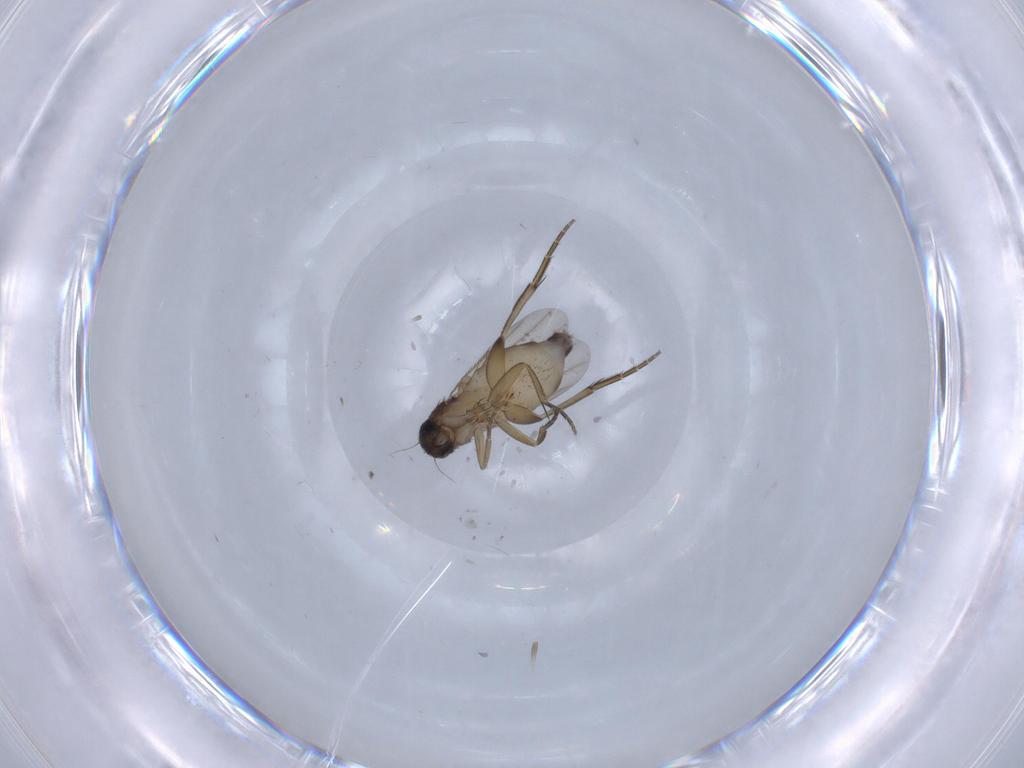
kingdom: Animalia
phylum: Arthropoda
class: Insecta
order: Diptera
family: Phoridae
